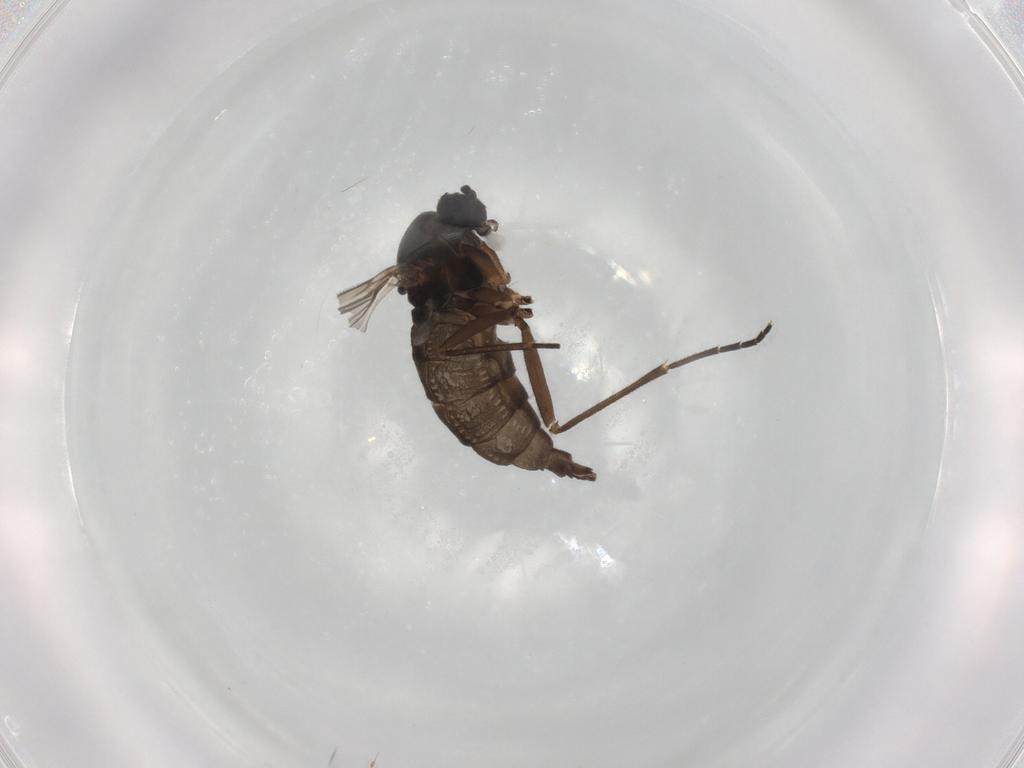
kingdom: Animalia
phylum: Arthropoda
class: Insecta
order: Diptera
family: Sciaridae
